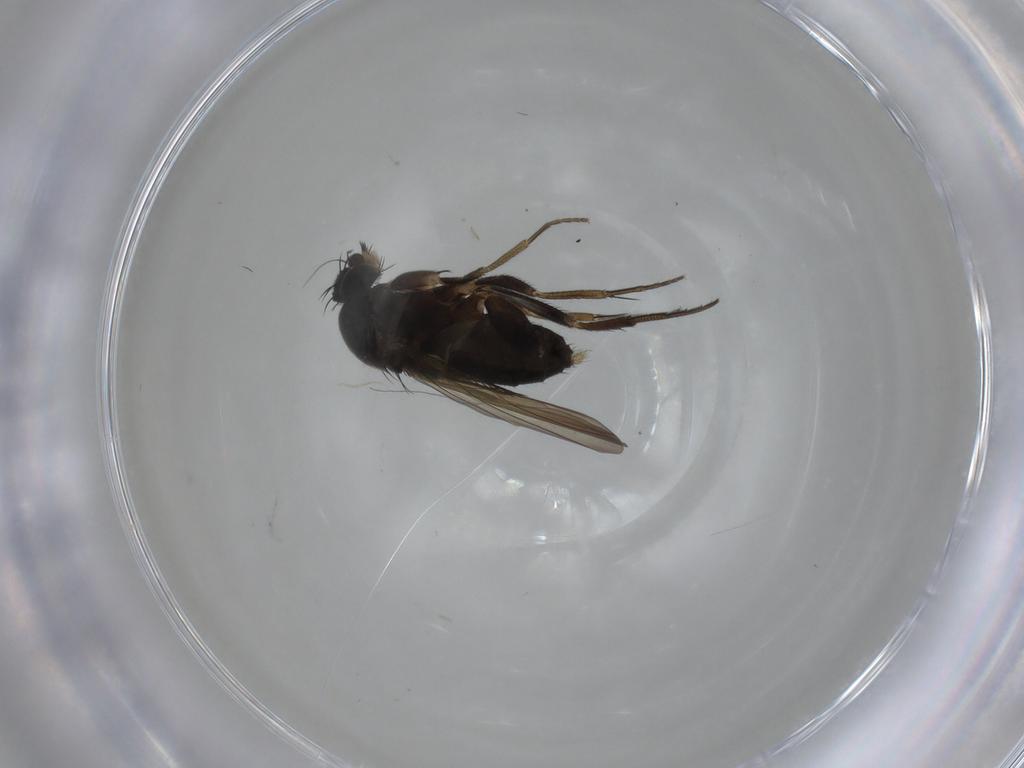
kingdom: Animalia
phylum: Arthropoda
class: Insecta
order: Diptera
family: Phoridae
